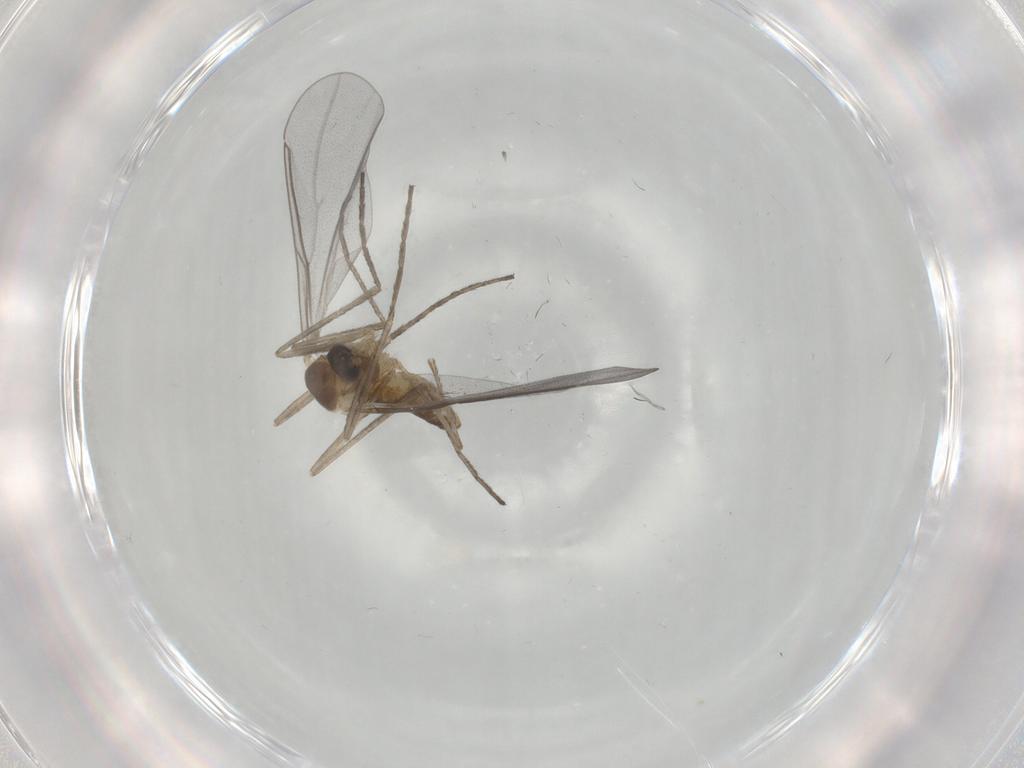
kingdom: Animalia
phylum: Arthropoda
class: Insecta
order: Diptera
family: Cecidomyiidae
